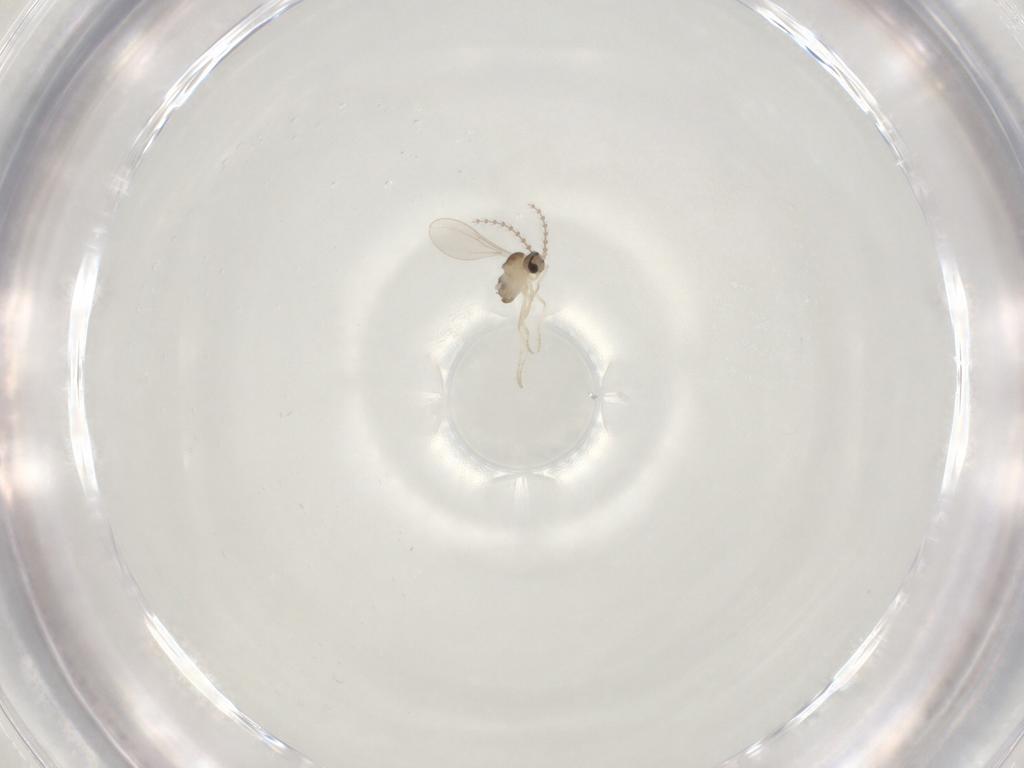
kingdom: Animalia
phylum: Arthropoda
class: Insecta
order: Diptera
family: Cecidomyiidae
